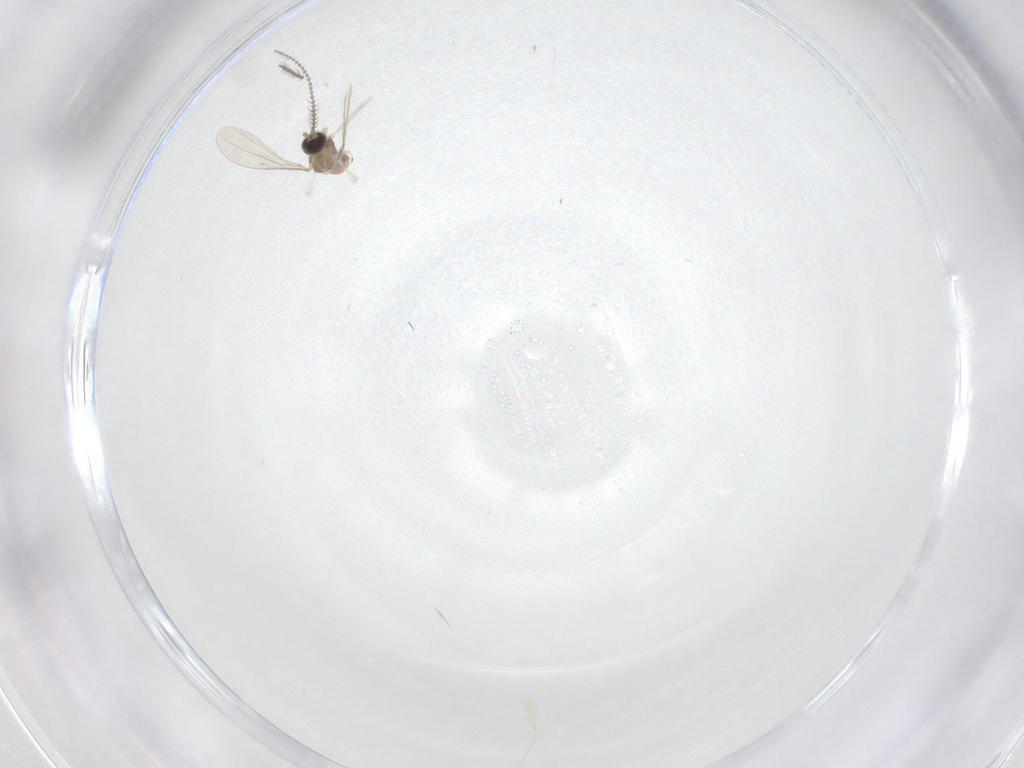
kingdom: Animalia
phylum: Arthropoda
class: Insecta
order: Diptera
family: Cecidomyiidae
